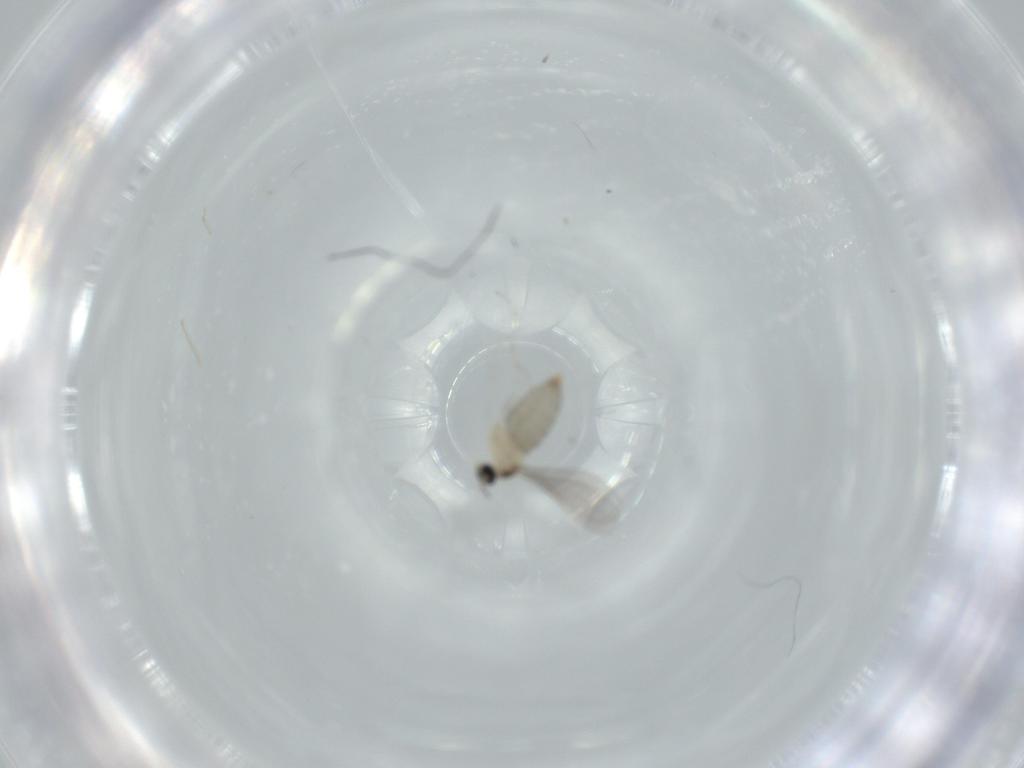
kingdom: Animalia
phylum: Arthropoda
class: Insecta
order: Diptera
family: Cecidomyiidae
